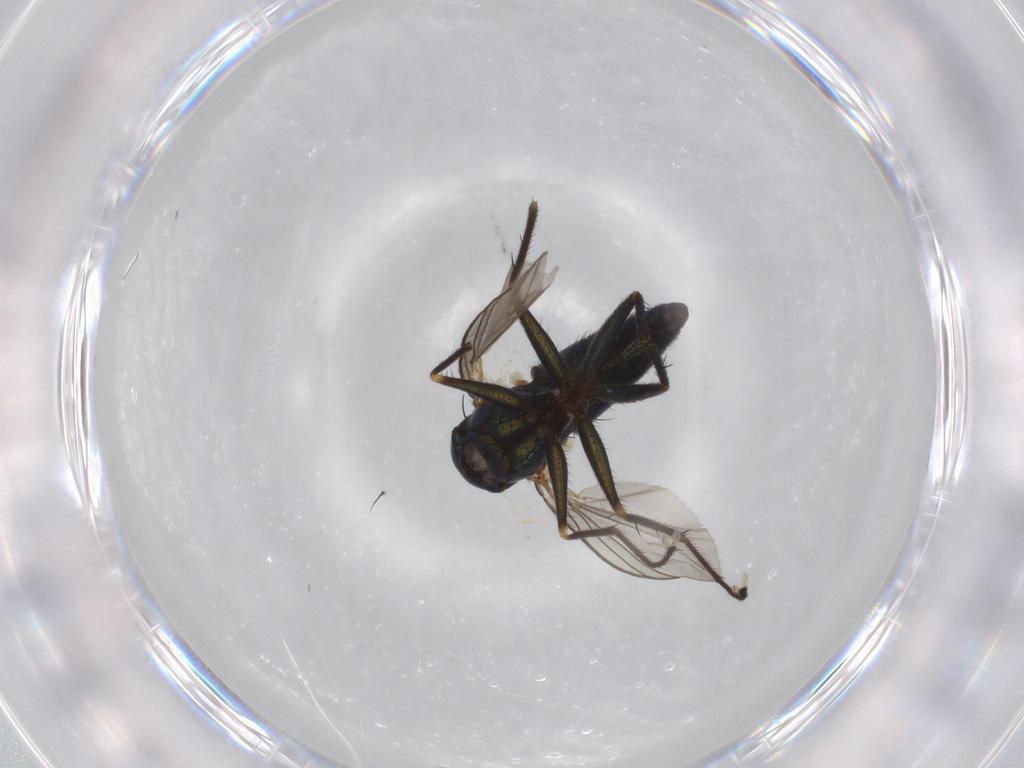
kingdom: Animalia
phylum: Arthropoda
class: Insecta
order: Diptera
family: Dolichopodidae
